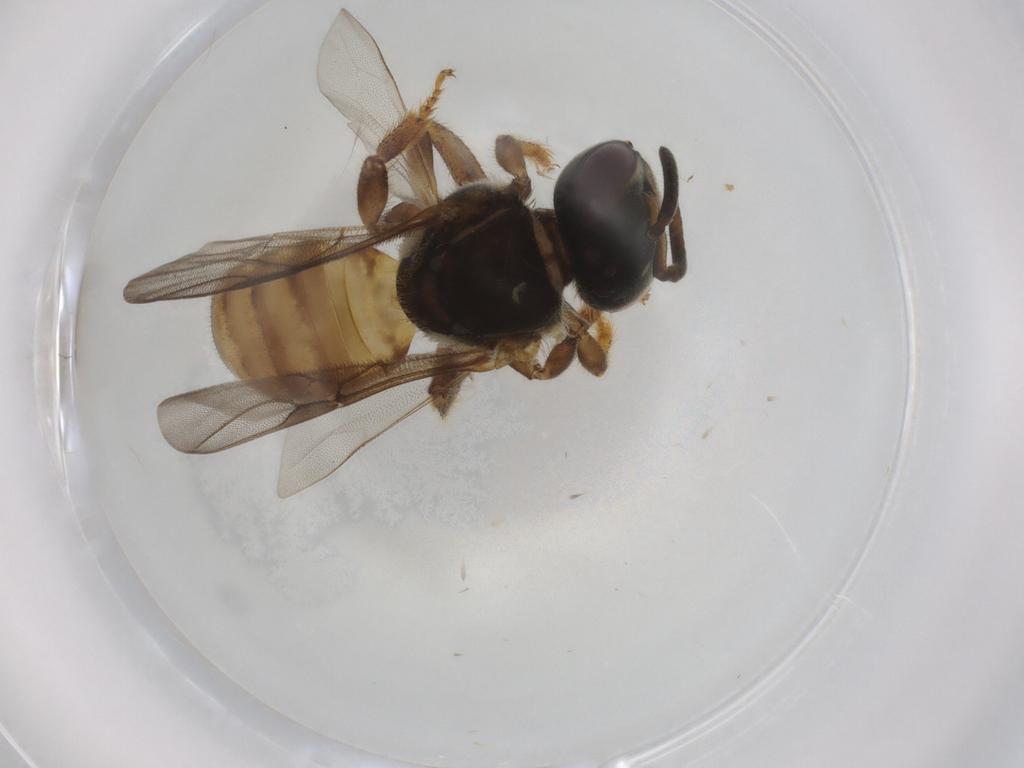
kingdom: Animalia
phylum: Arthropoda
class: Insecta
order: Hymenoptera
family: Apidae
